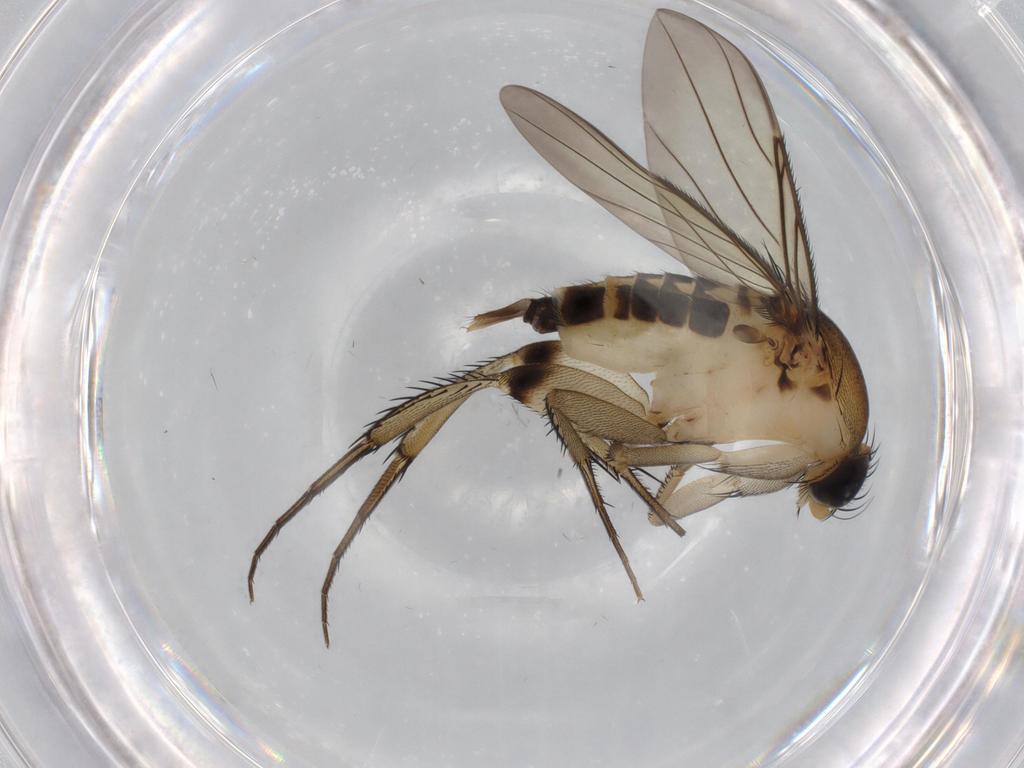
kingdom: Animalia
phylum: Arthropoda
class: Insecta
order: Diptera
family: Phoridae
